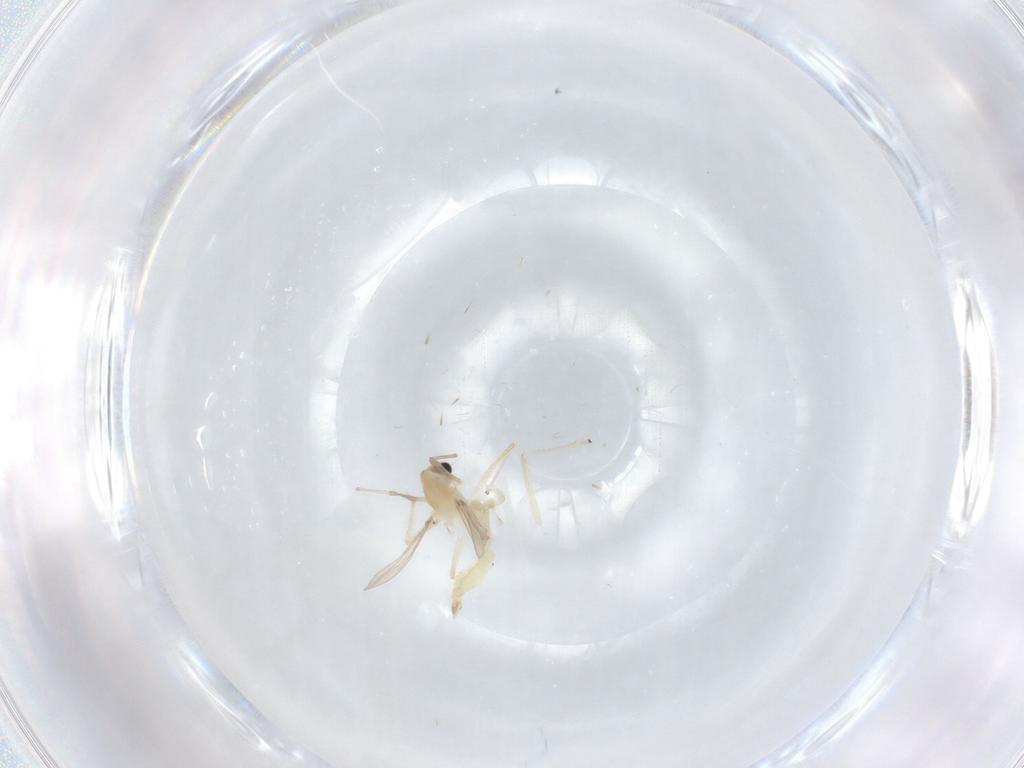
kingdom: Animalia
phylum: Arthropoda
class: Insecta
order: Diptera
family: Chironomidae
